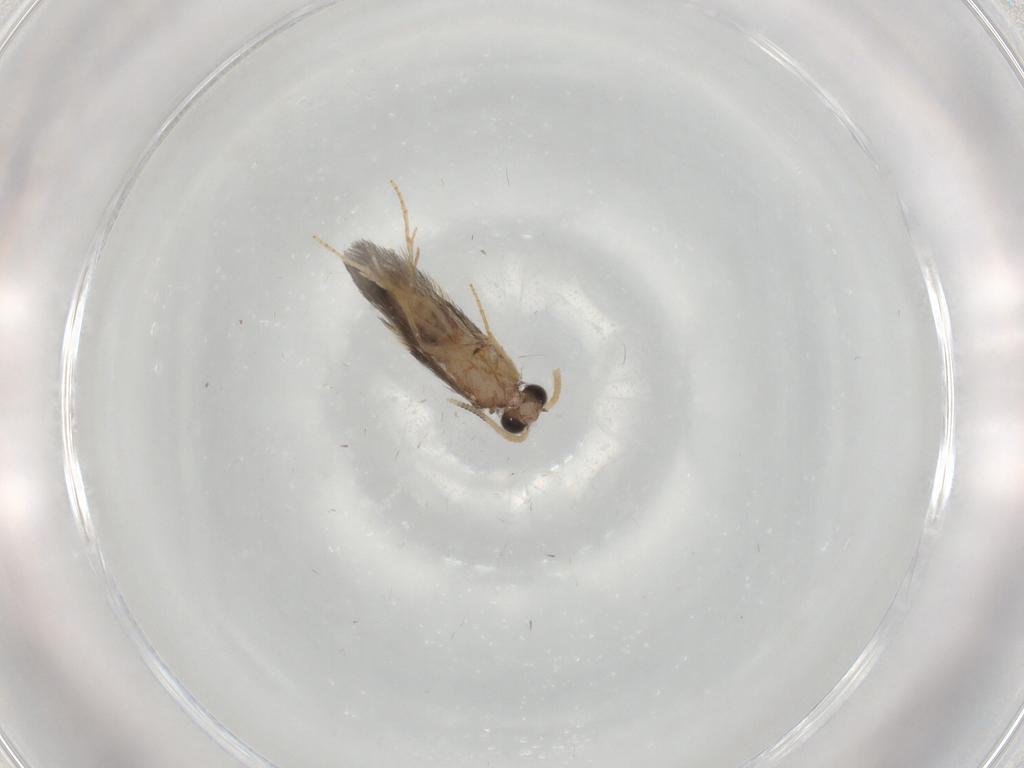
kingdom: Animalia
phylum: Arthropoda
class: Insecta
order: Trichoptera
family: Hydroptilidae
